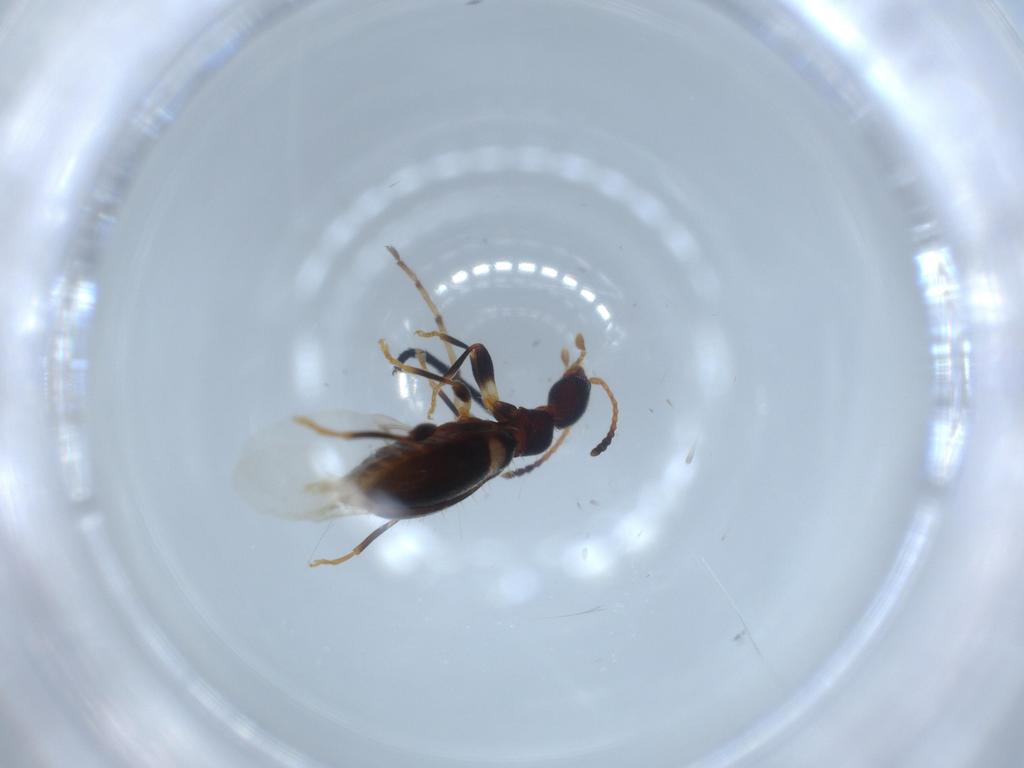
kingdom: Animalia
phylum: Arthropoda
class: Insecta
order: Coleoptera
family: Anthicidae
